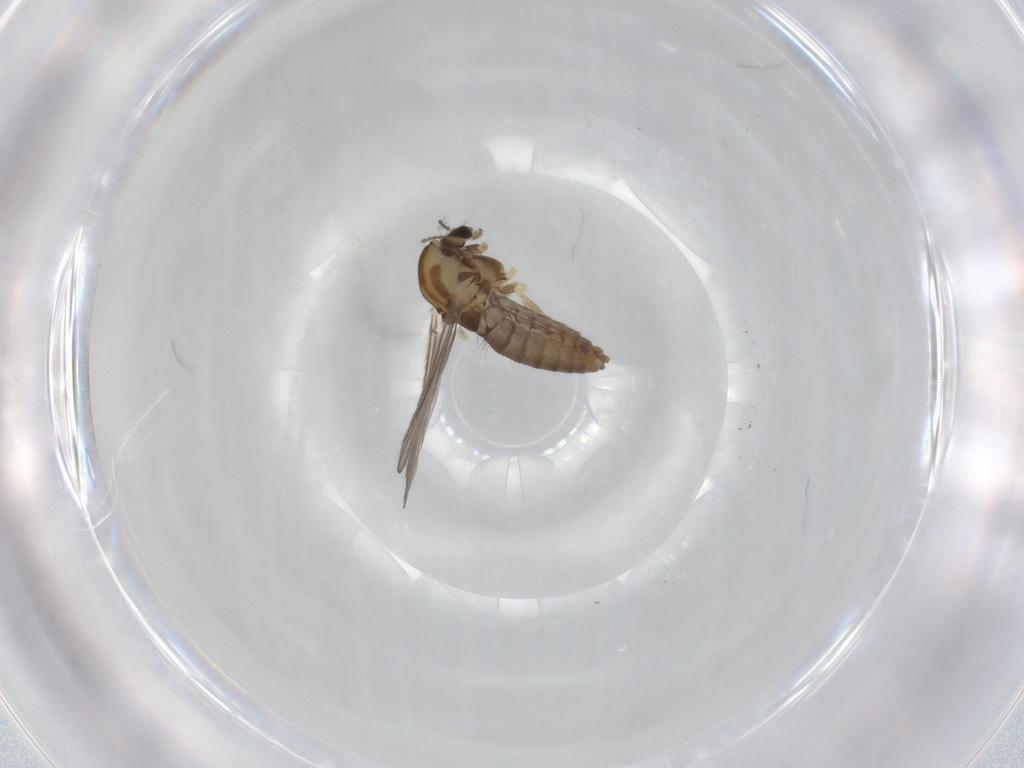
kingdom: Animalia
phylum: Arthropoda
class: Insecta
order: Diptera
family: Chironomidae
